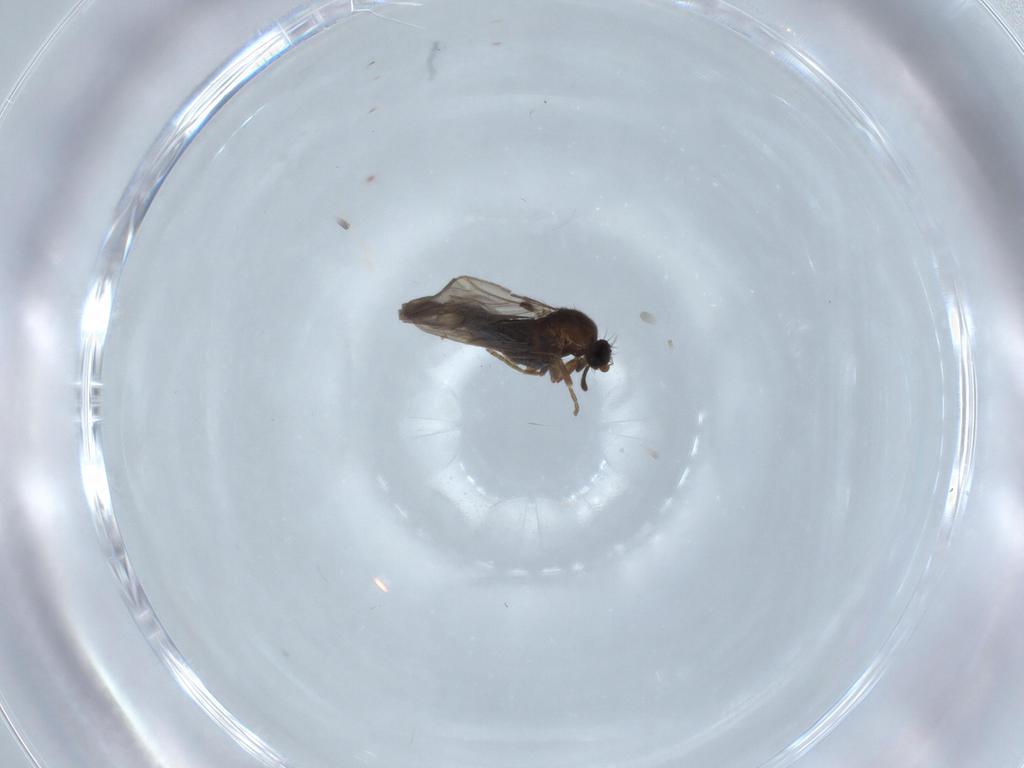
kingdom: Animalia
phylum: Arthropoda
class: Insecta
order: Diptera
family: Phoridae
